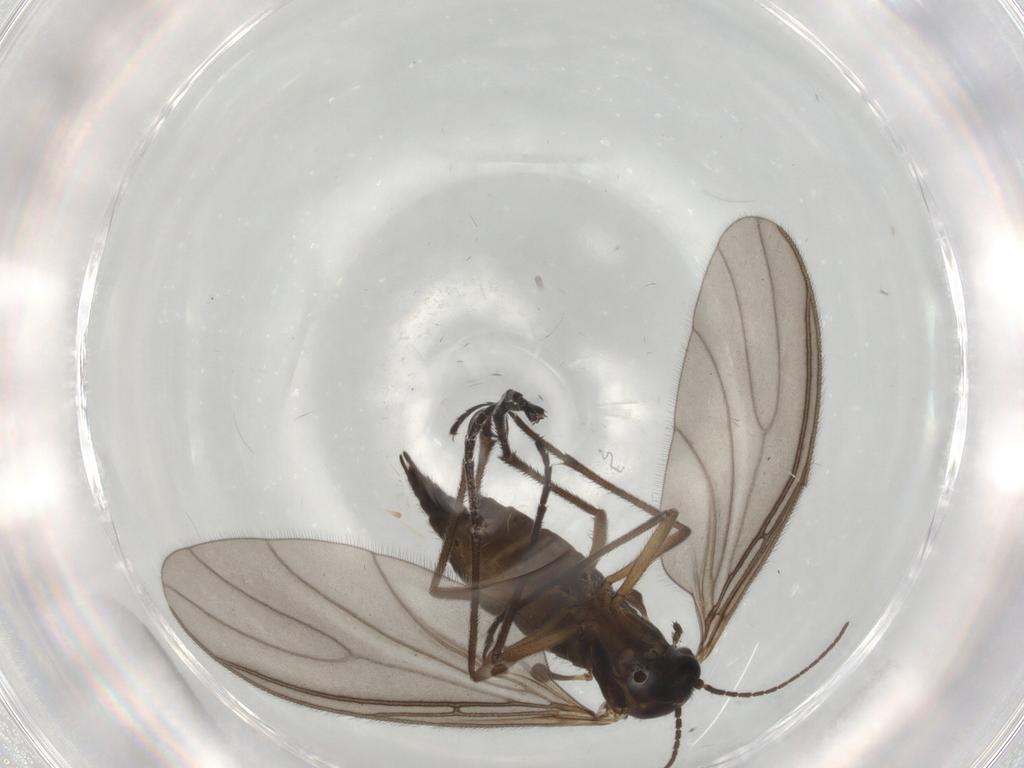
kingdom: Animalia
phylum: Arthropoda
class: Insecta
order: Diptera
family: Sciaridae
